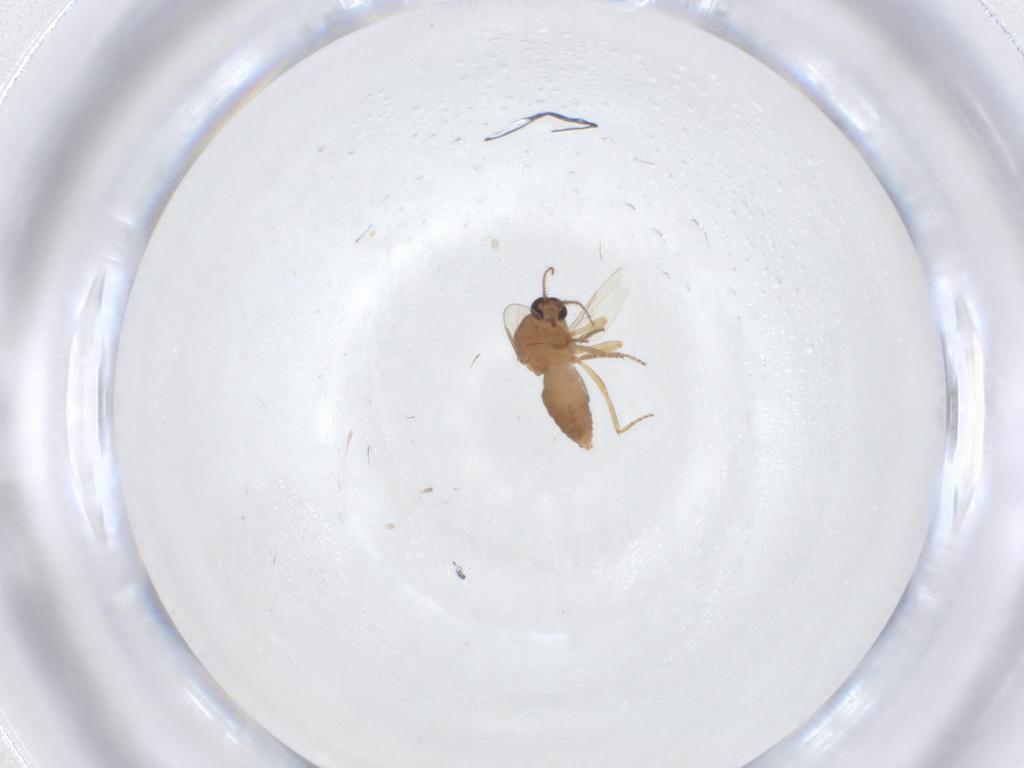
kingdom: Animalia
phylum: Arthropoda
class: Insecta
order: Diptera
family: Ceratopogonidae
